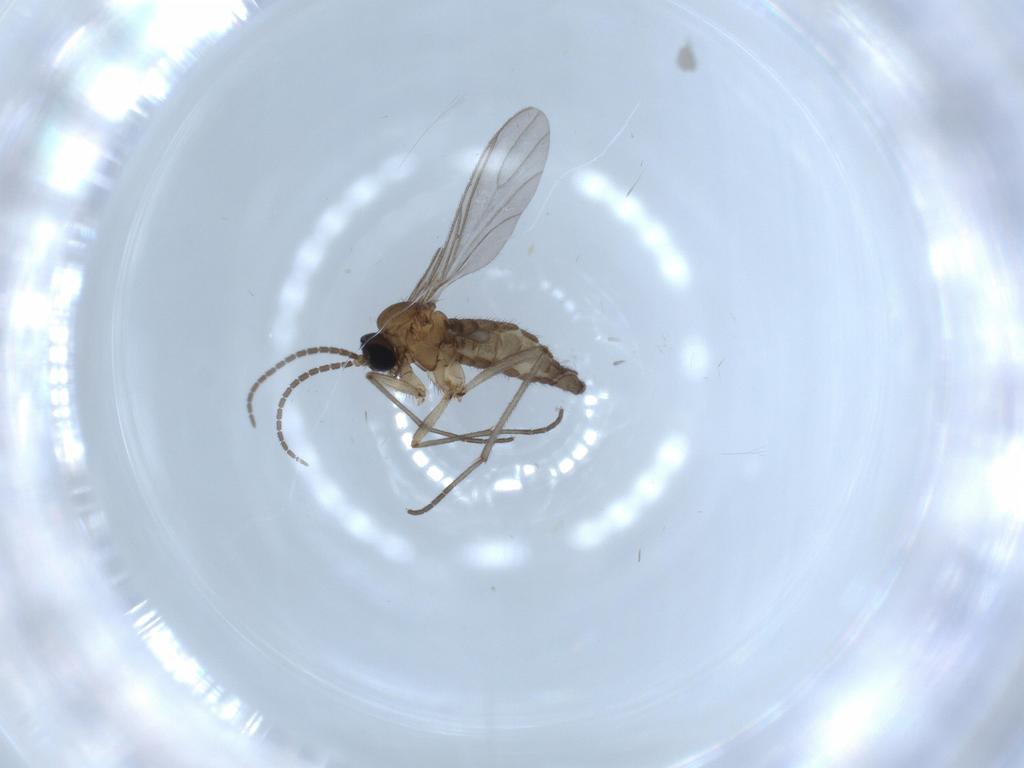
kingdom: Animalia
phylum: Arthropoda
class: Insecta
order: Diptera
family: Sciaridae
